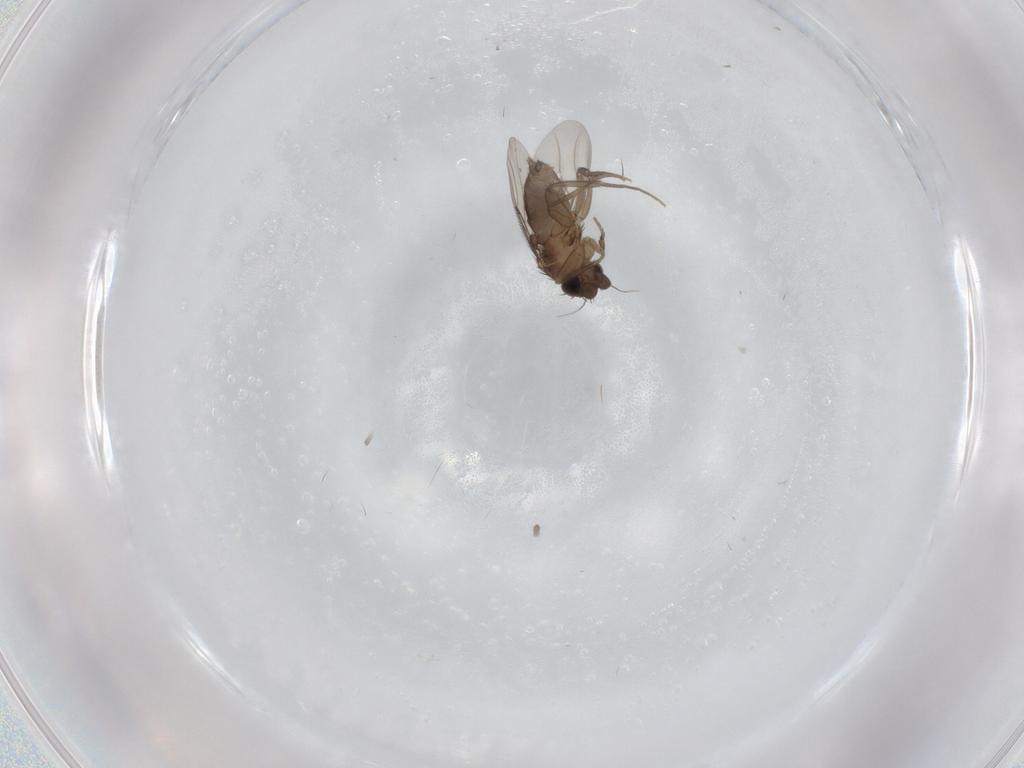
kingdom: Animalia
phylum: Arthropoda
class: Insecta
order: Diptera
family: Phoridae
